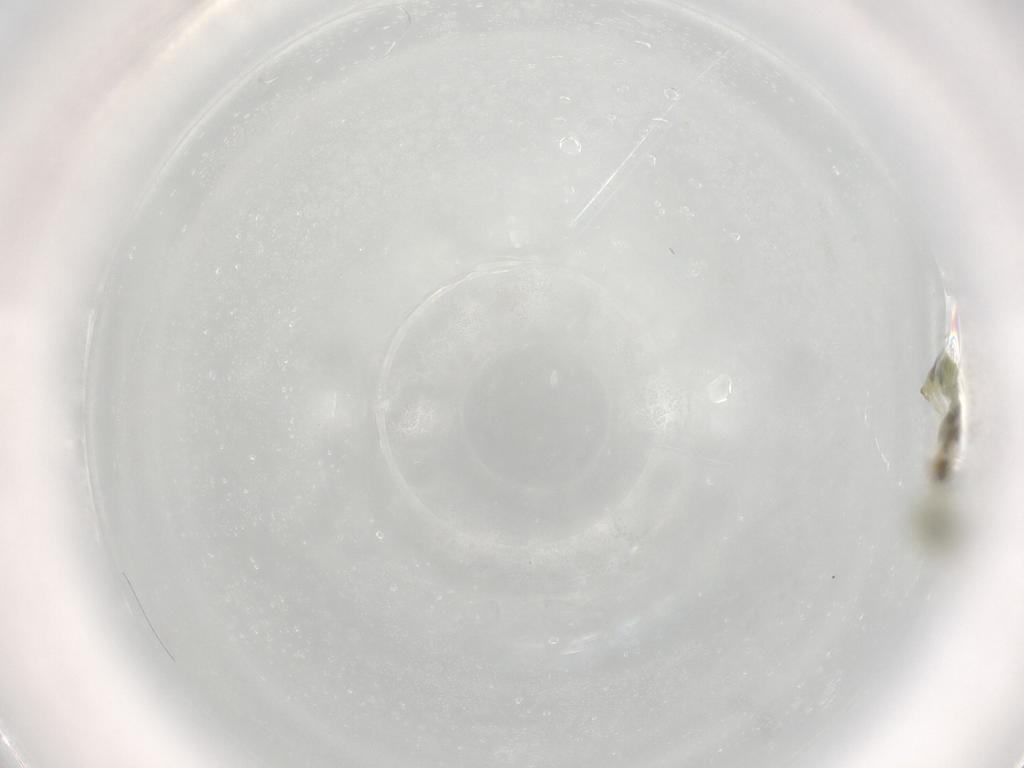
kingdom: Animalia
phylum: Arthropoda
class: Insecta
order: Diptera
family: Chironomidae
